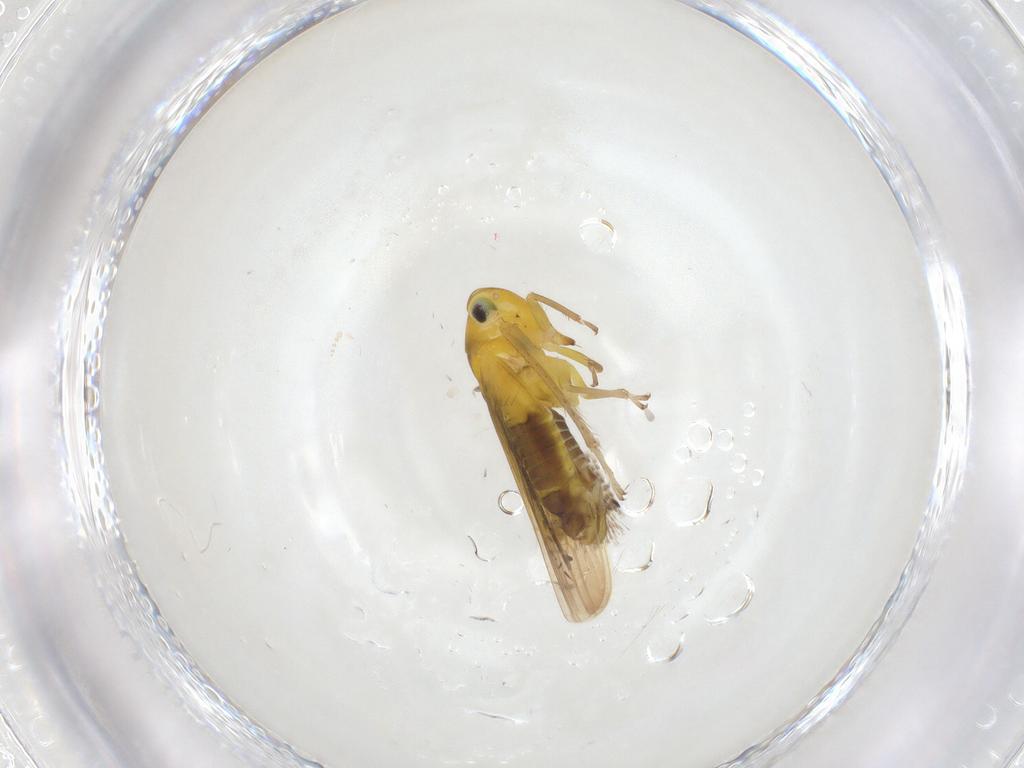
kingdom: Animalia
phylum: Arthropoda
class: Insecta
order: Hemiptera
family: Cicadellidae
